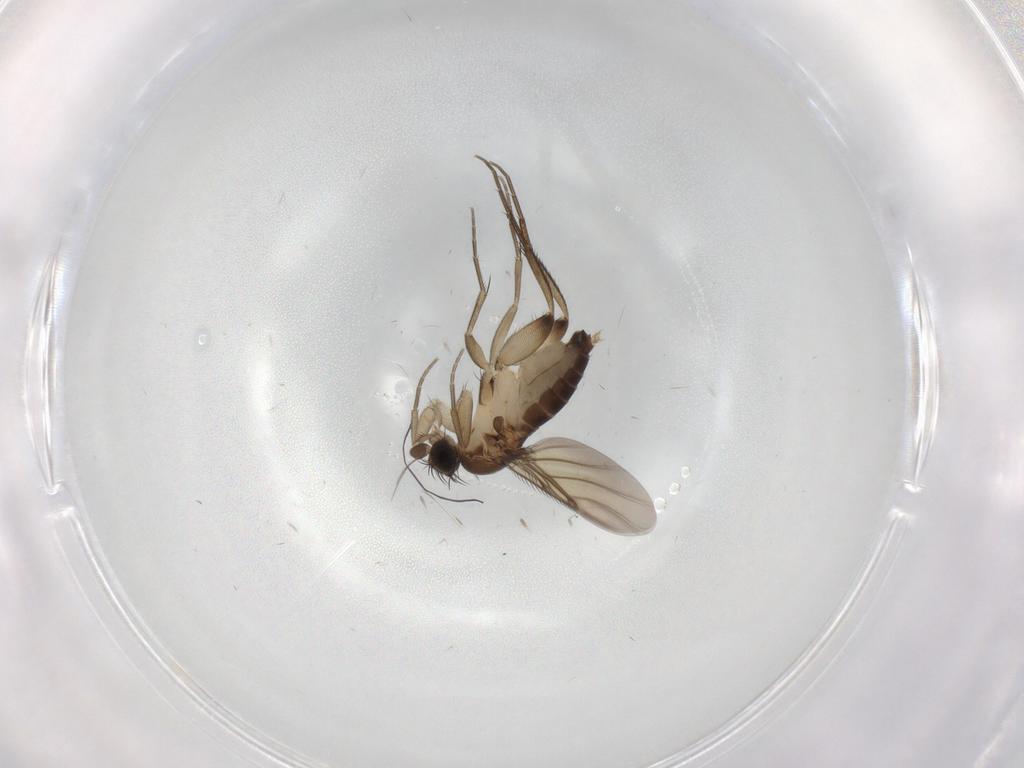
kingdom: Animalia
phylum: Arthropoda
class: Insecta
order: Diptera
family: Phoridae
